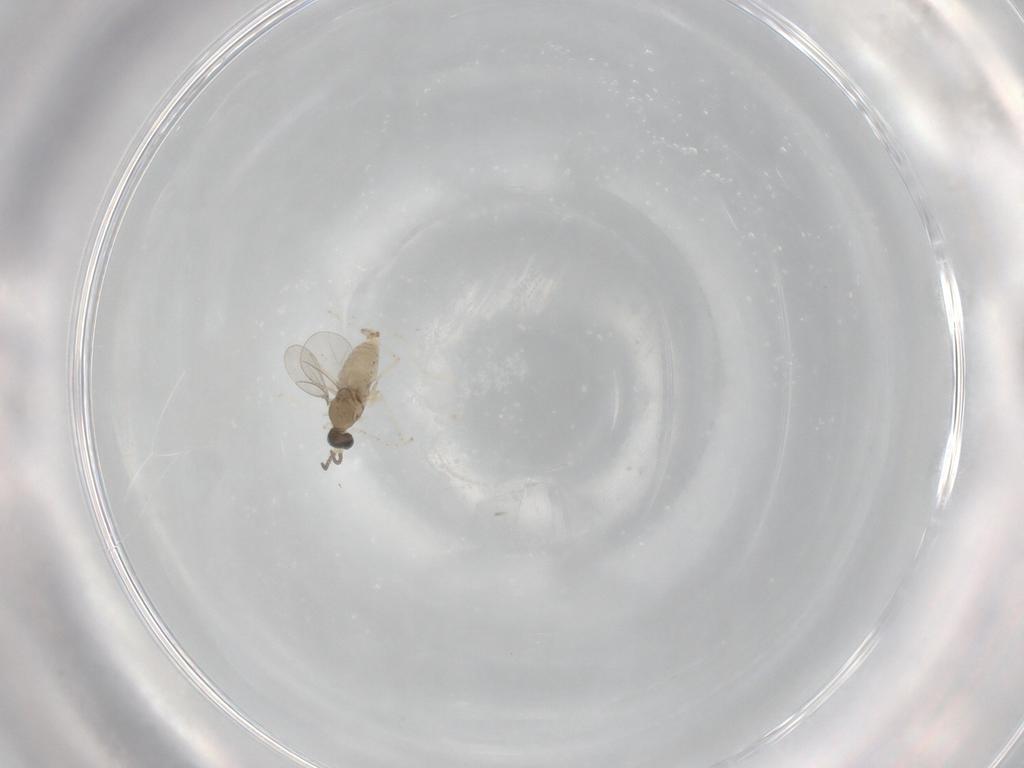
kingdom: Animalia
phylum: Arthropoda
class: Insecta
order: Diptera
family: Cecidomyiidae
